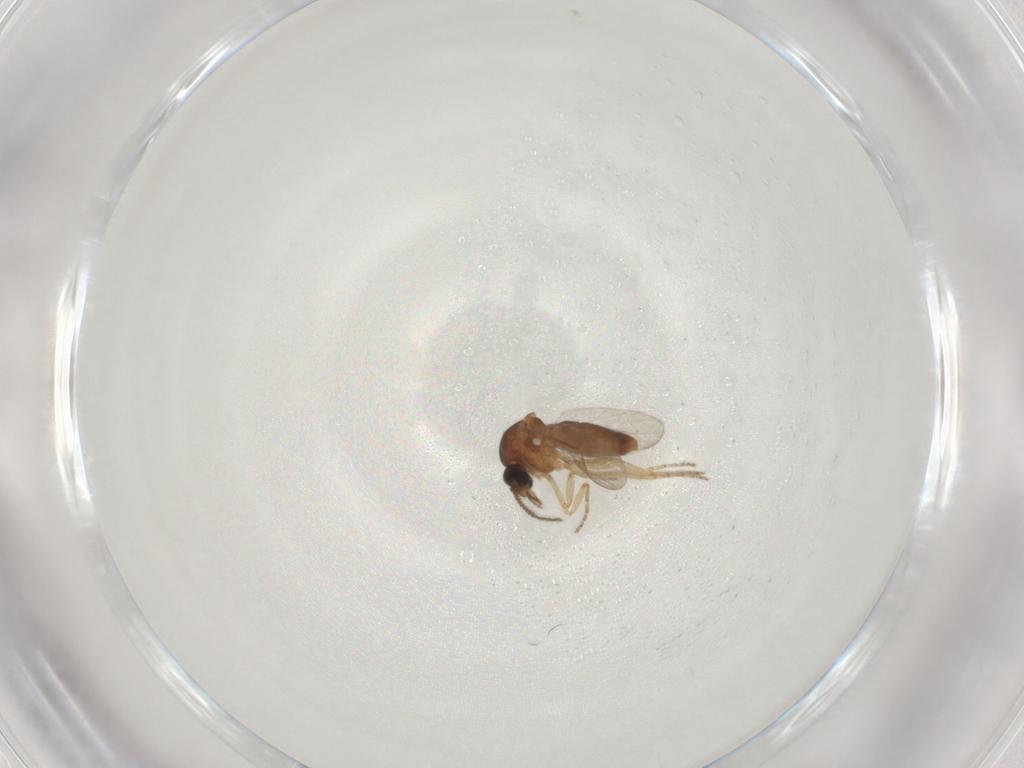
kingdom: Animalia
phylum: Arthropoda
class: Insecta
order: Diptera
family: Ceratopogonidae
